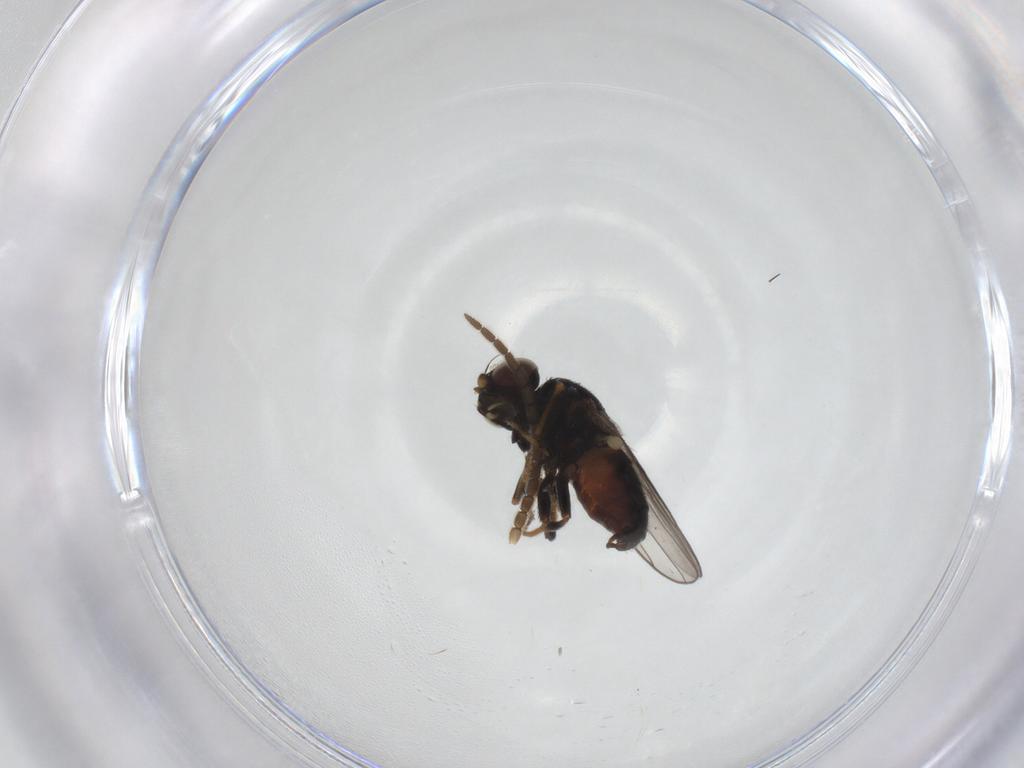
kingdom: Animalia
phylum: Arthropoda
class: Insecta
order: Diptera
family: Chloropidae
